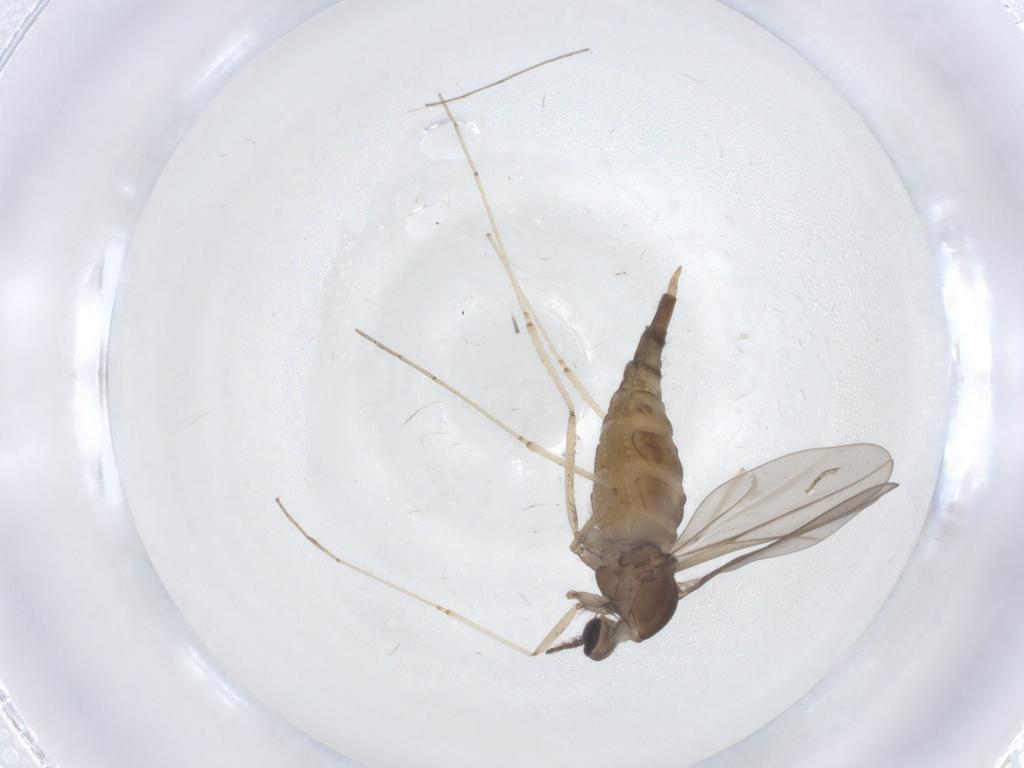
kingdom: Animalia
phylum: Arthropoda
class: Insecta
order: Diptera
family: Cecidomyiidae
